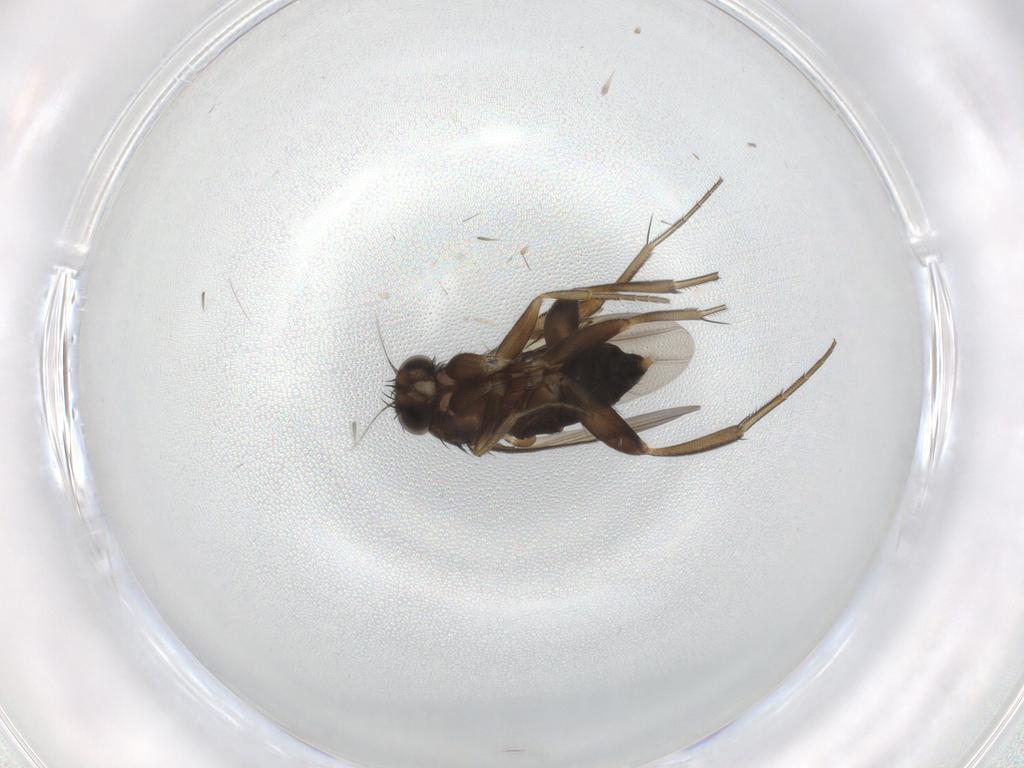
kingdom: Animalia
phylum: Arthropoda
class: Insecta
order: Diptera
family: Phoridae
